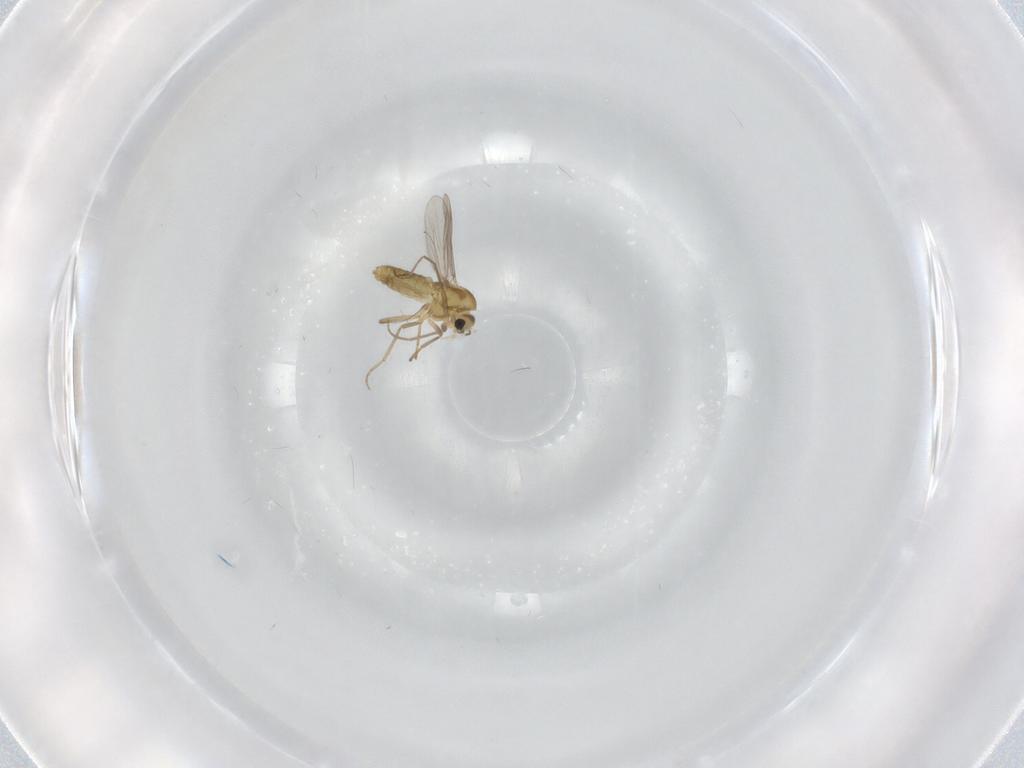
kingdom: Animalia
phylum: Arthropoda
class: Insecta
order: Diptera
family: Chironomidae
